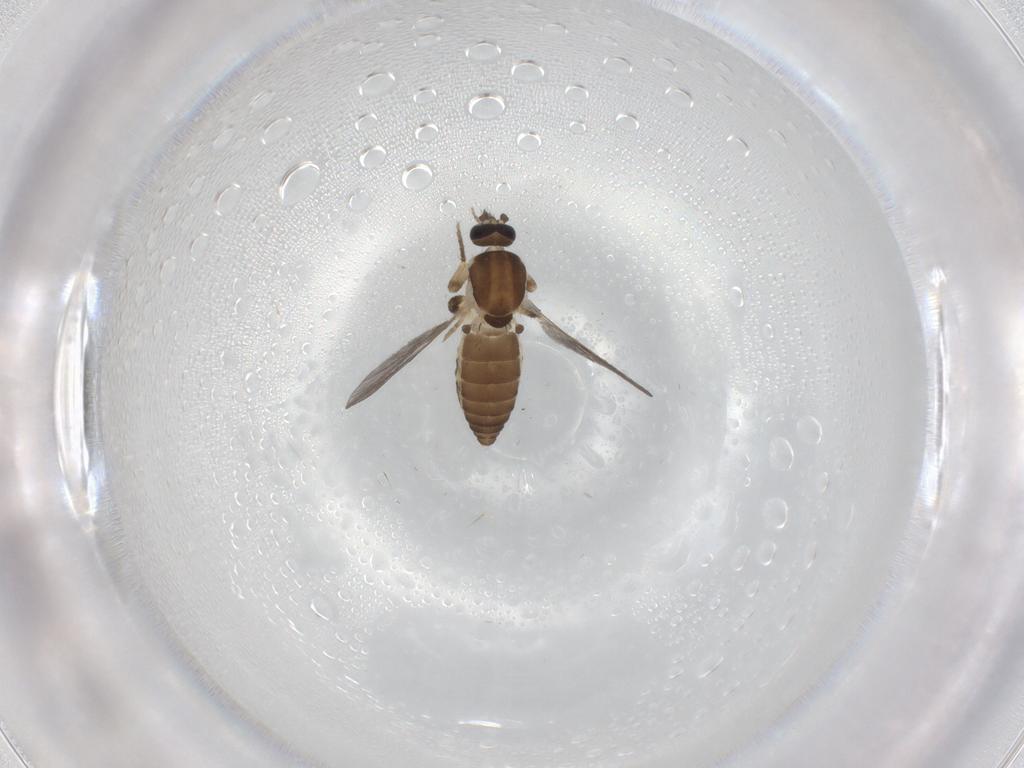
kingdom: Animalia
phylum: Arthropoda
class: Insecta
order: Diptera
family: Ceratopogonidae
